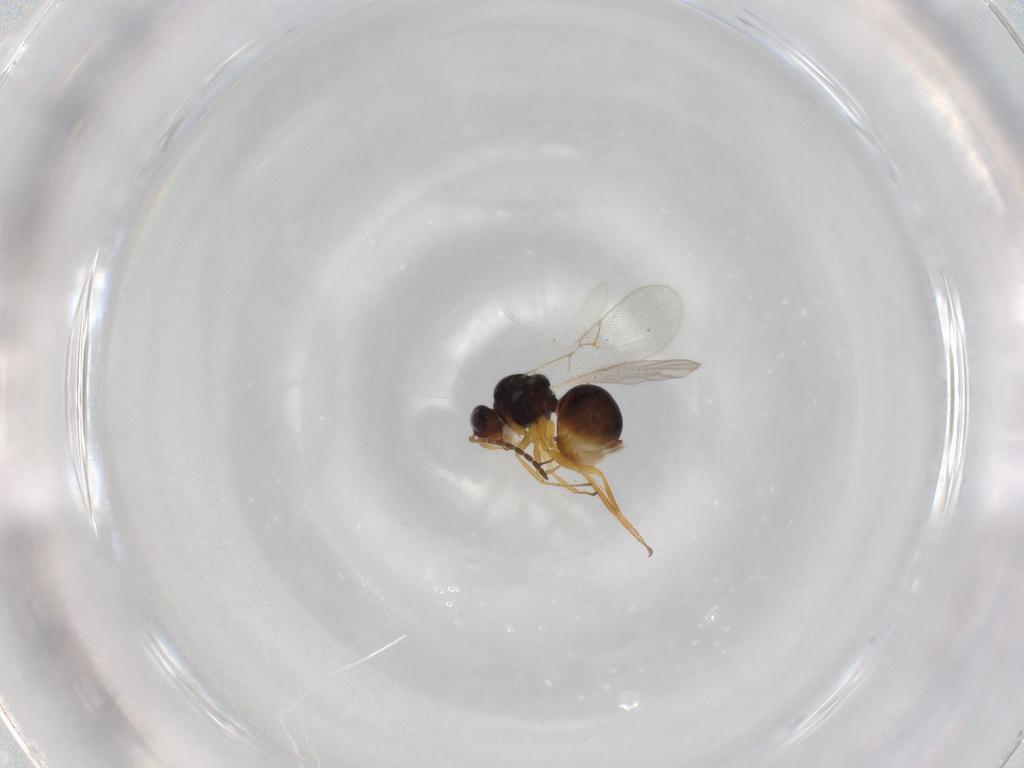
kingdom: Animalia
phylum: Arthropoda
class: Insecta
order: Hymenoptera
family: Figitidae
